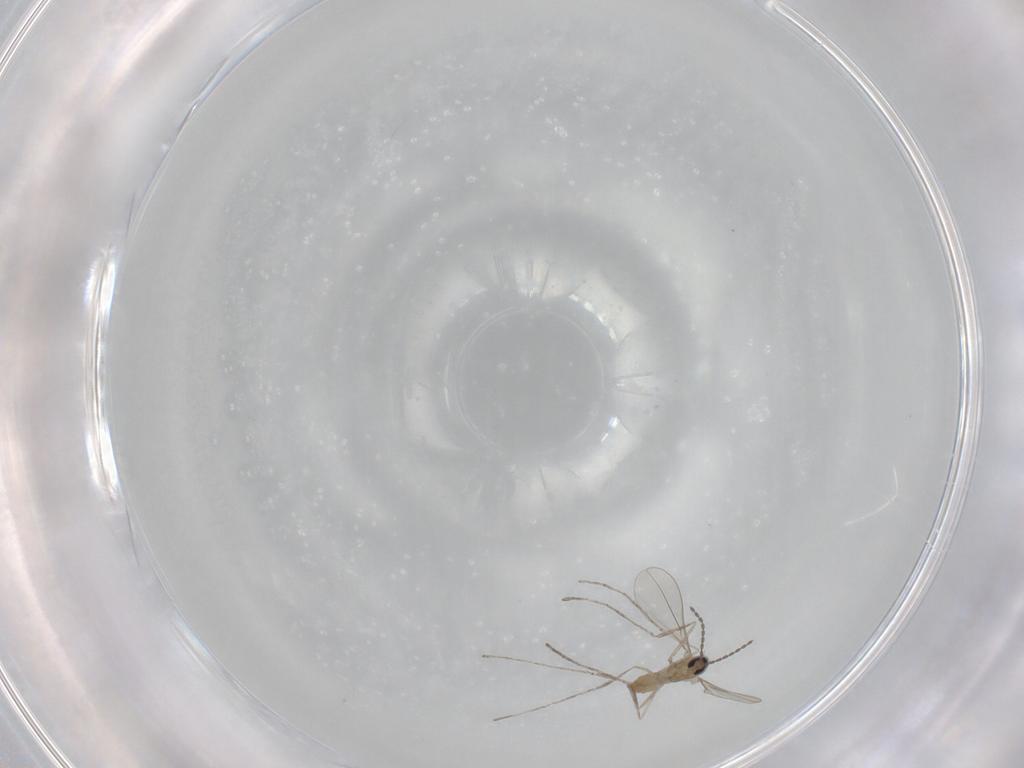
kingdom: Animalia
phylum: Arthropoda
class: Insecta
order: Diptera
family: Cecidomyiidae
